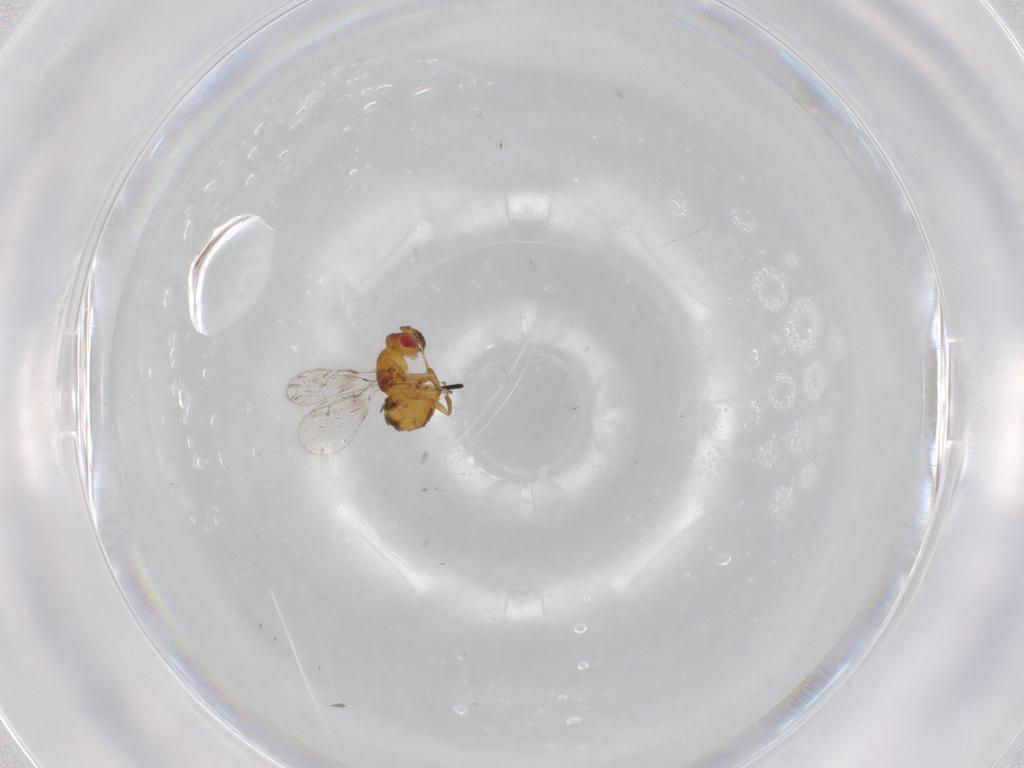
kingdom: Animalia
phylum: Arthropoda
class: Insecta
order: Hymenoptera
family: Torymidae
